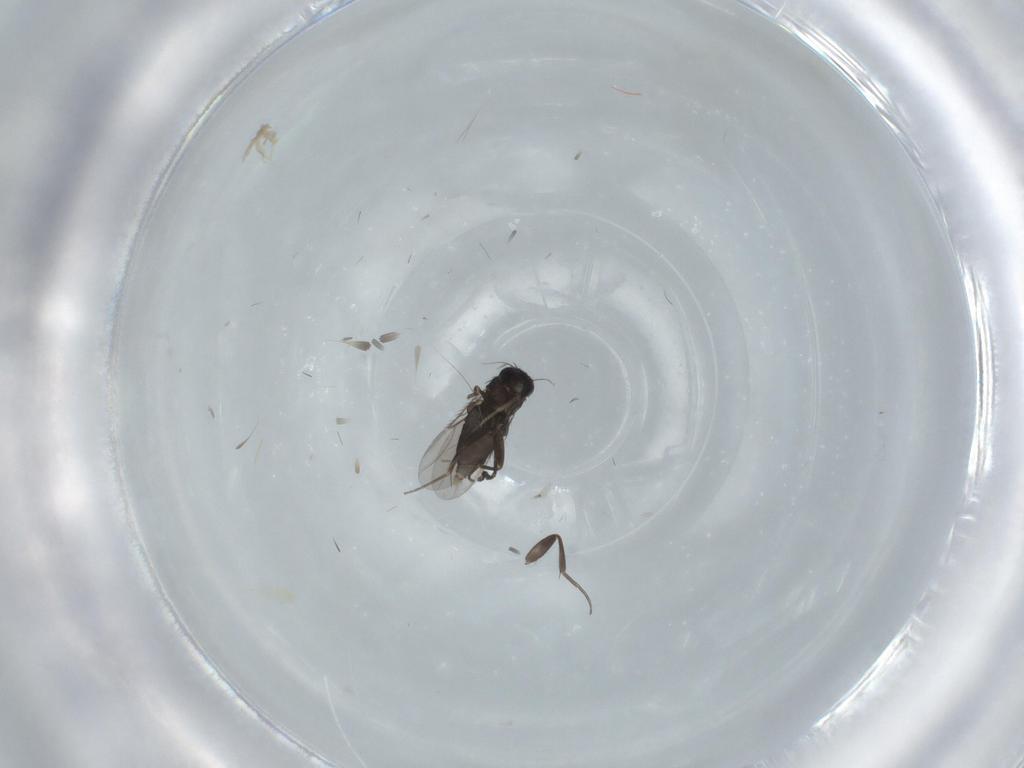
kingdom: Animalia
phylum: Arthropoda
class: Insecta
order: Diptera
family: Phoridae
